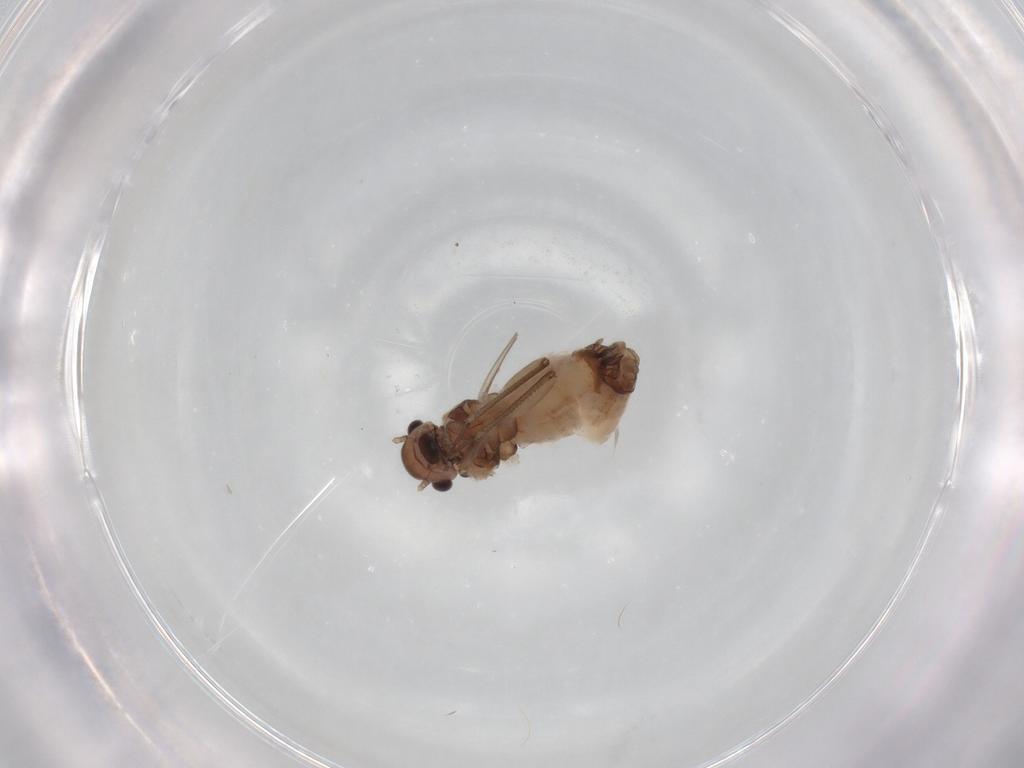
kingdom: Animalia
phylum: Arthropoda
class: Insecta
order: Psocodea
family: Peripsocidae
